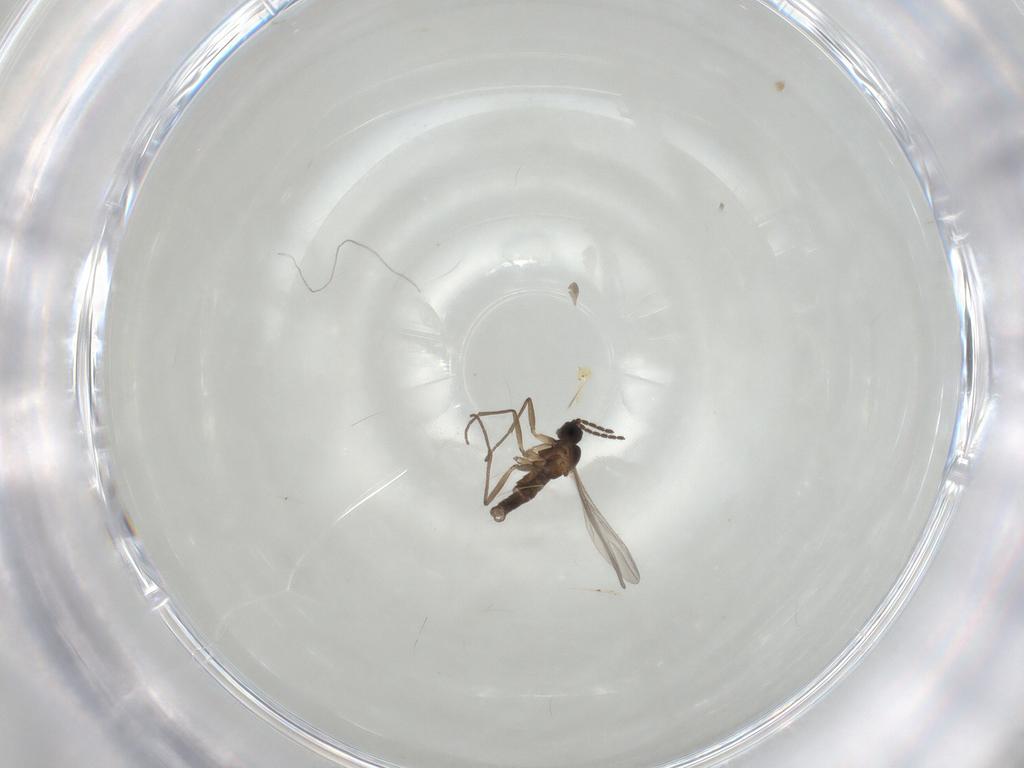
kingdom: Animalia
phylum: Arthropoda
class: Insecta
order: Diptera
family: Sciaridae
